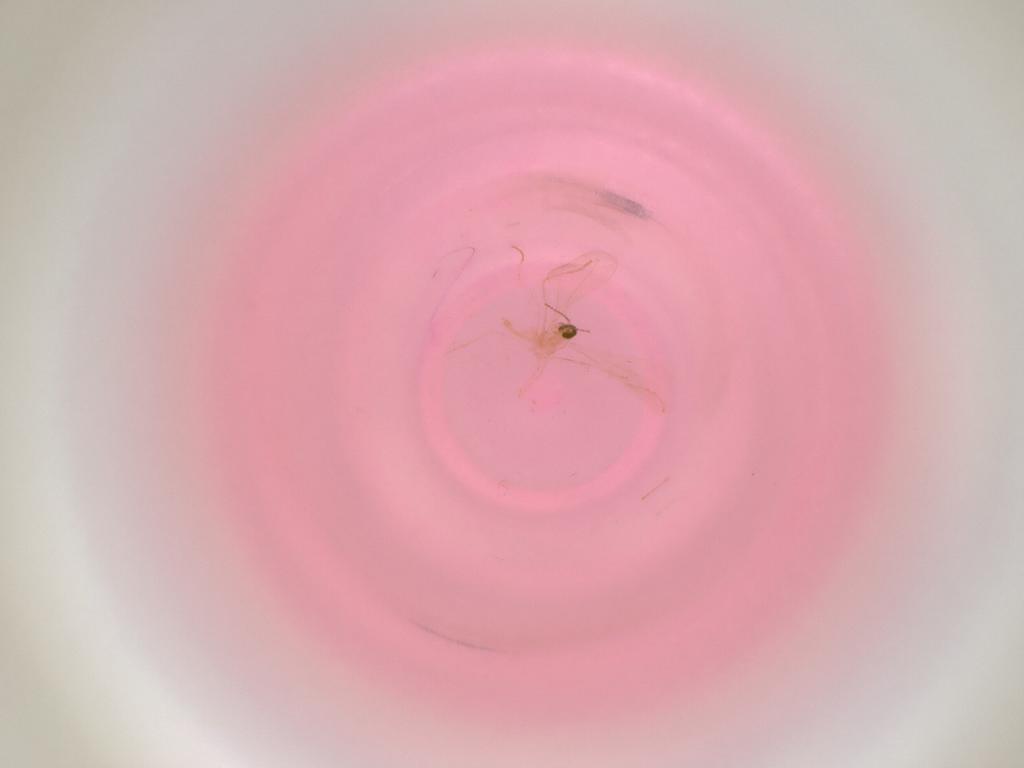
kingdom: Animalia
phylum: Arthropoda
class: Insecta
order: Diptera
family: Cecidomyiidae
